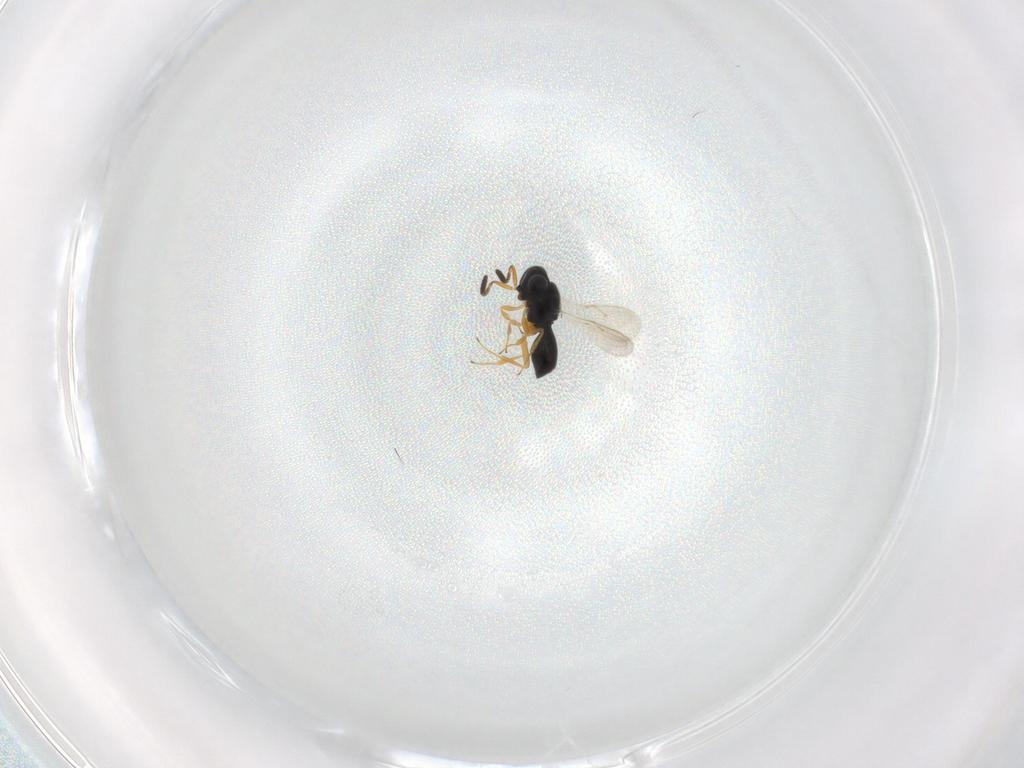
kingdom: Animalia
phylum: Arthropoda
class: Insecta
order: Hymenoptera
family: Scelionidae
